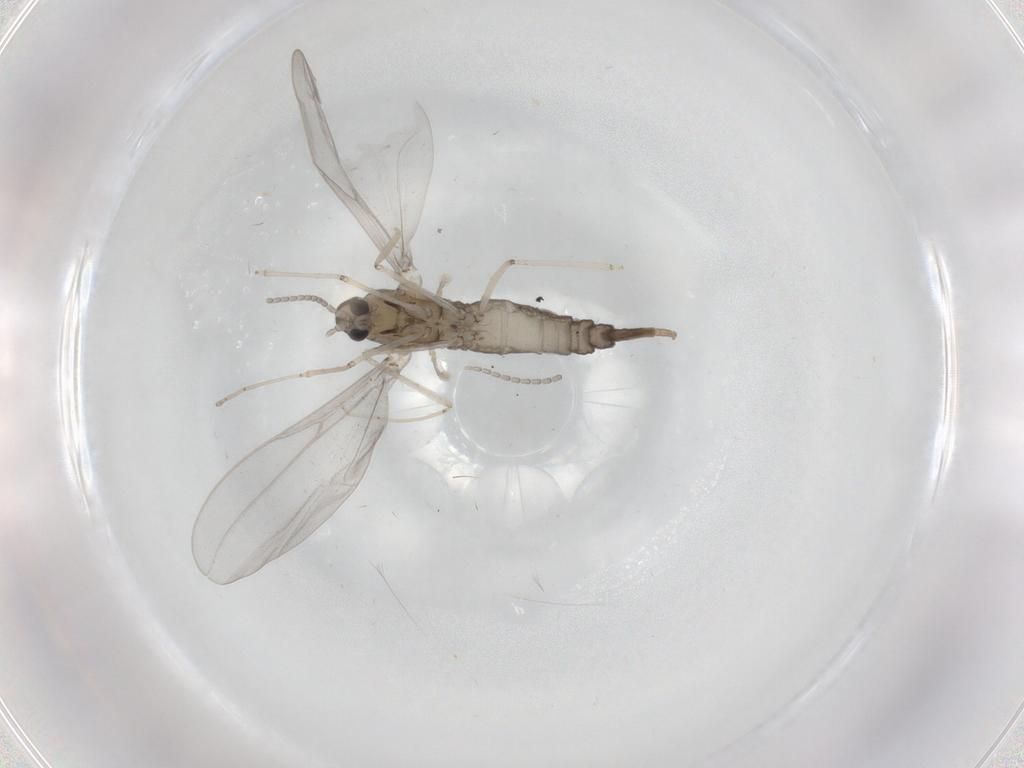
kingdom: Animalia
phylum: Arthropoda
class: Insecta
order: Diptera
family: Cecidomyiidae
